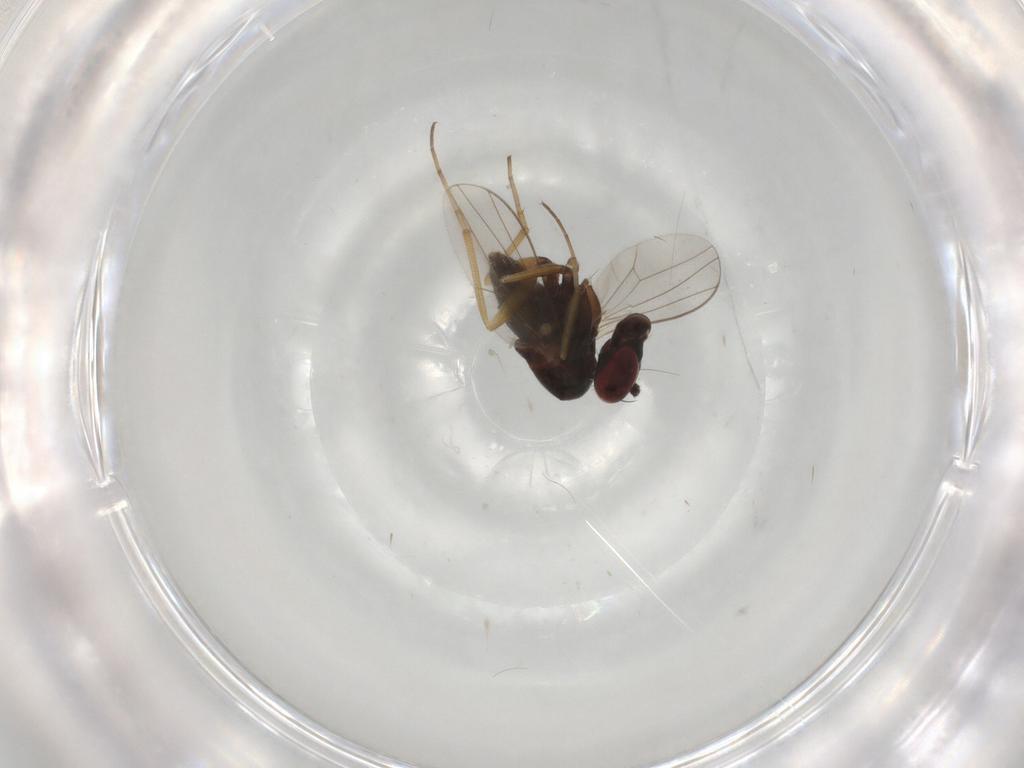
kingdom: Animalia
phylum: Arthropoda
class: Insecta
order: Diptera
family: Dolichopodidae
